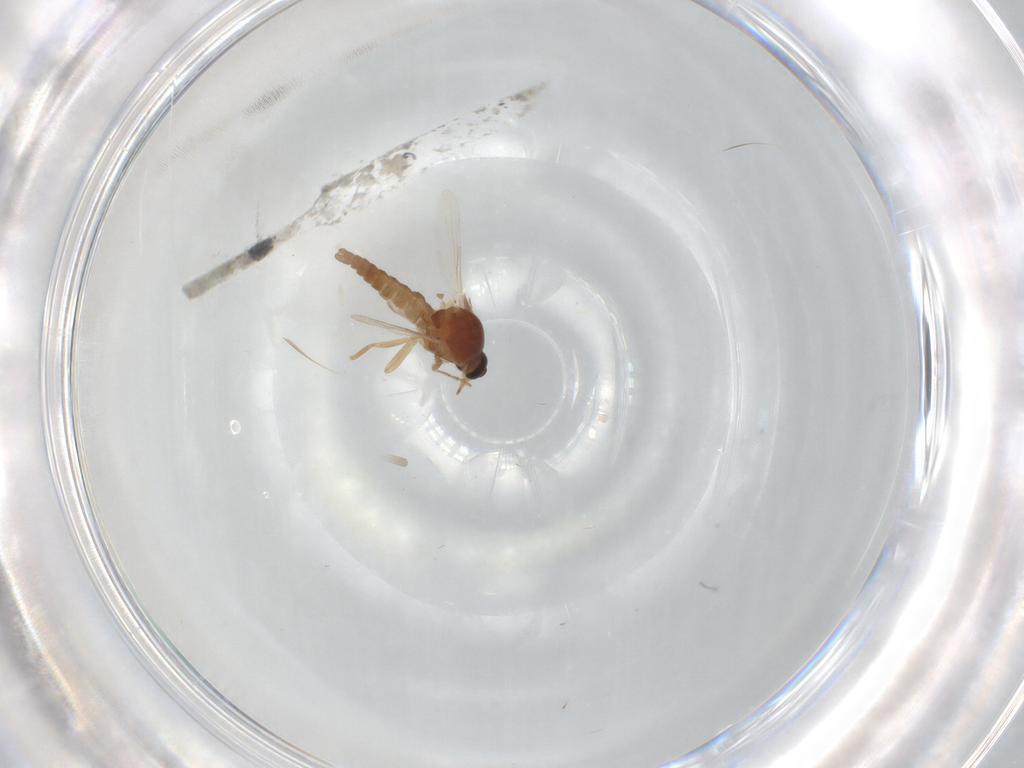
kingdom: Animalia
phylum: Arthropoda
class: Insecta
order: Diptera
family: Ceratopogonidae
